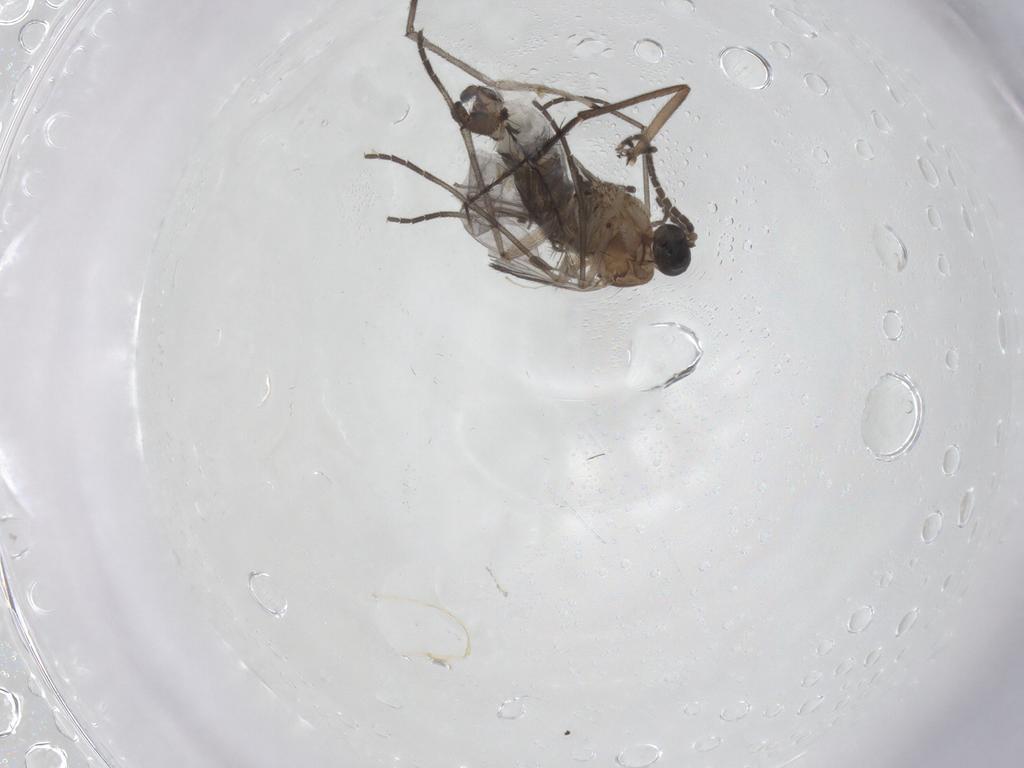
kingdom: Animalia
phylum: Arthropoda
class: Insecta
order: Diptera
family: Sciaridae
